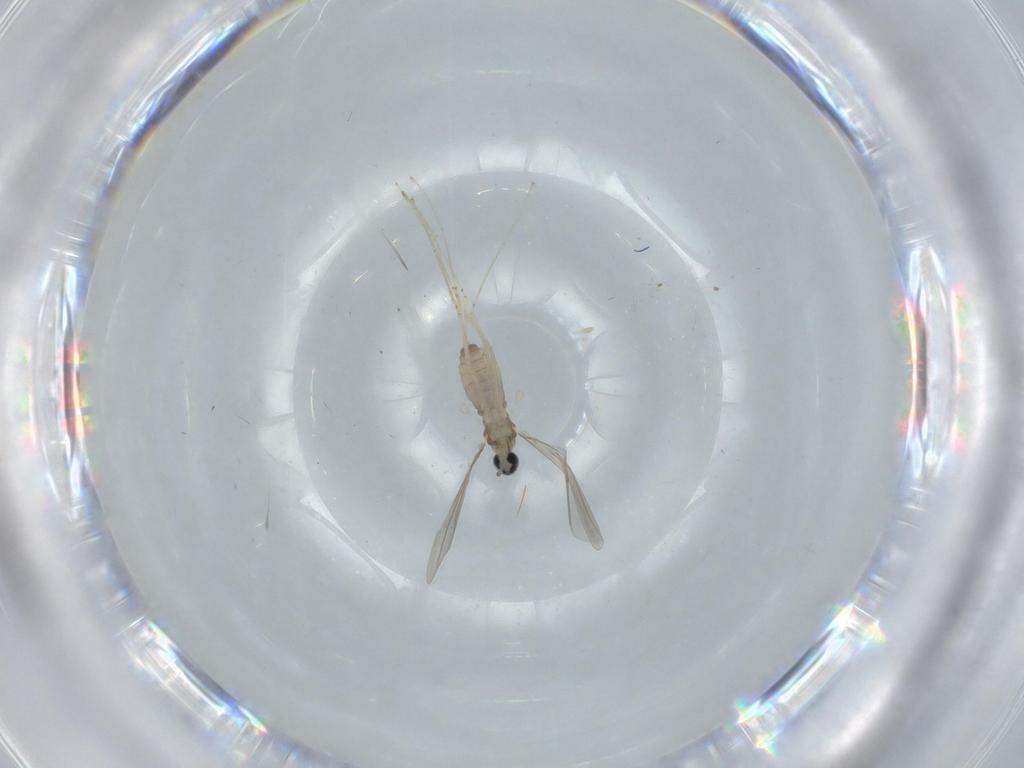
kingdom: Animalia
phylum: Arthropoda
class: Insecta
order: Diptera
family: Cecidomyiidae
